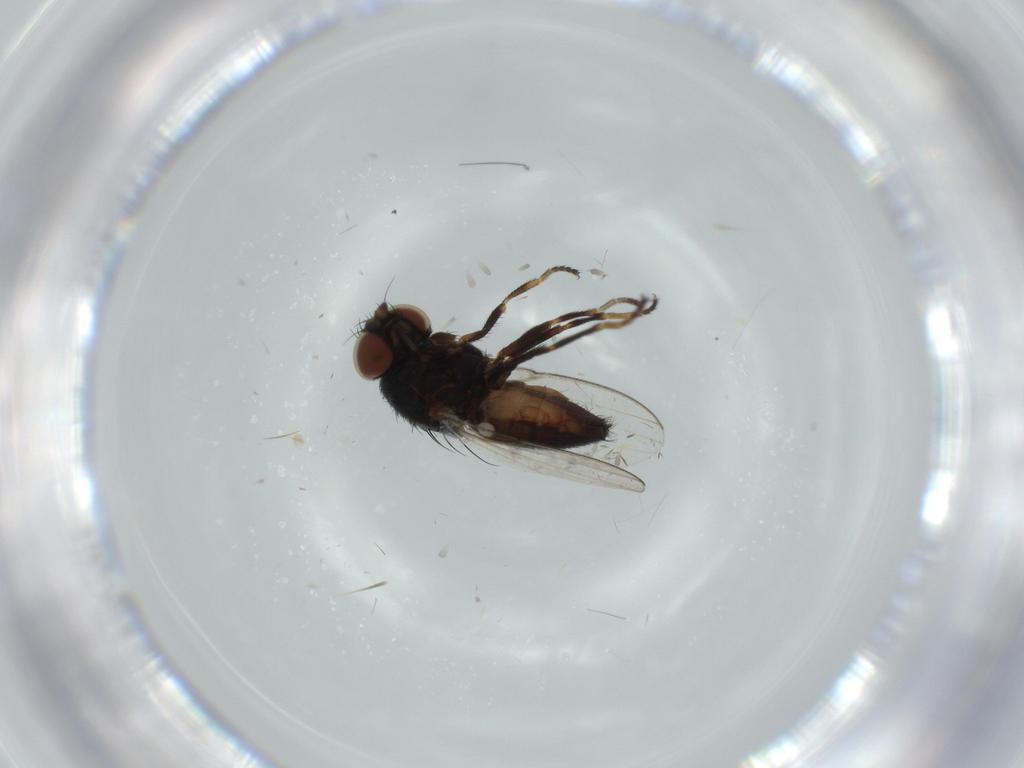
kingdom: Animalia
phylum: Arthropoda
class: Insecta
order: Diptera
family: Milichiidae
